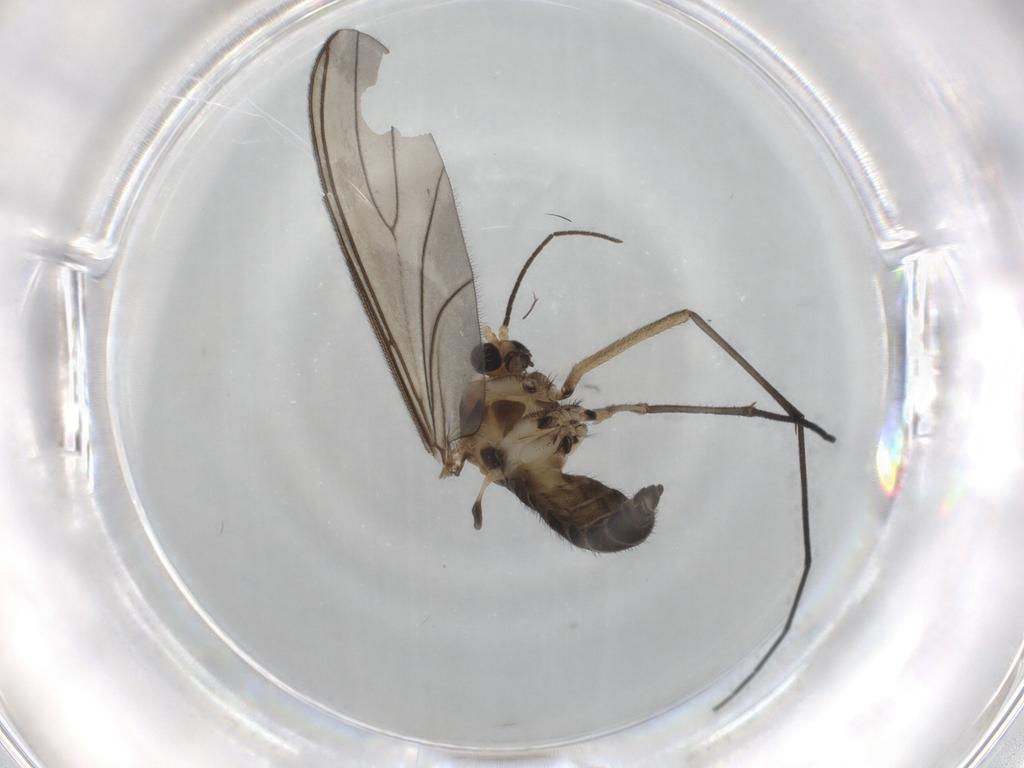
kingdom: Animalia
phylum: Arthropoda
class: Insecta
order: Diptera
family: Sciaridae
